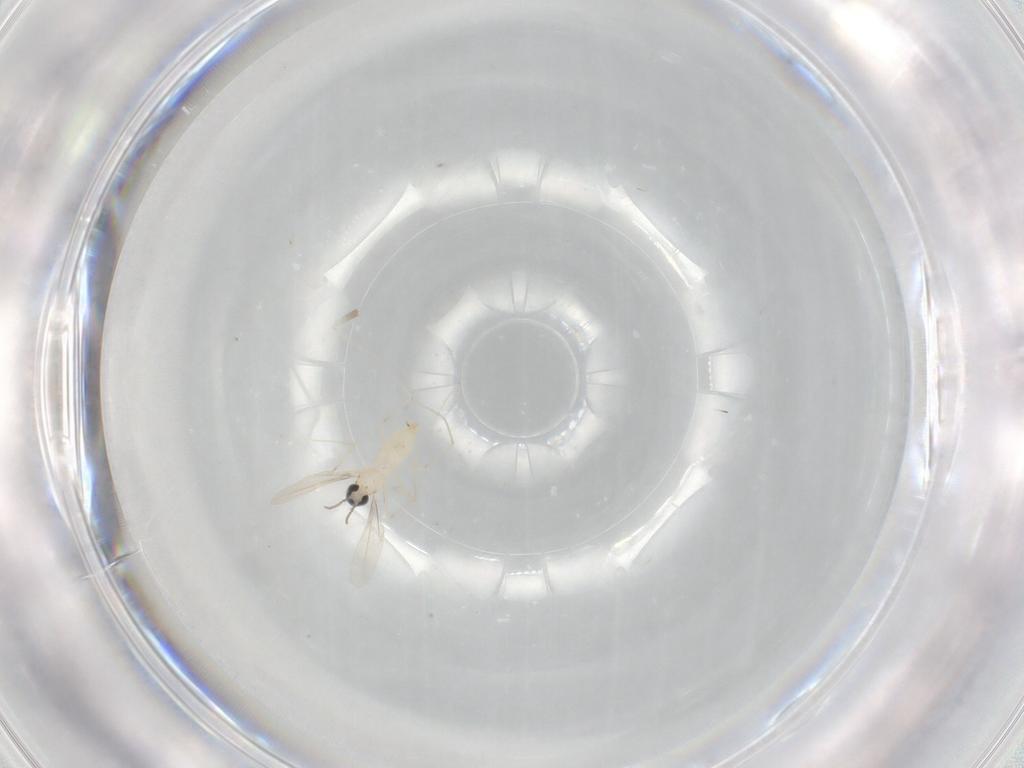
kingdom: Animalia
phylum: Arthropoda
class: Insecta
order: Diptera
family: Cecidomyiidae
